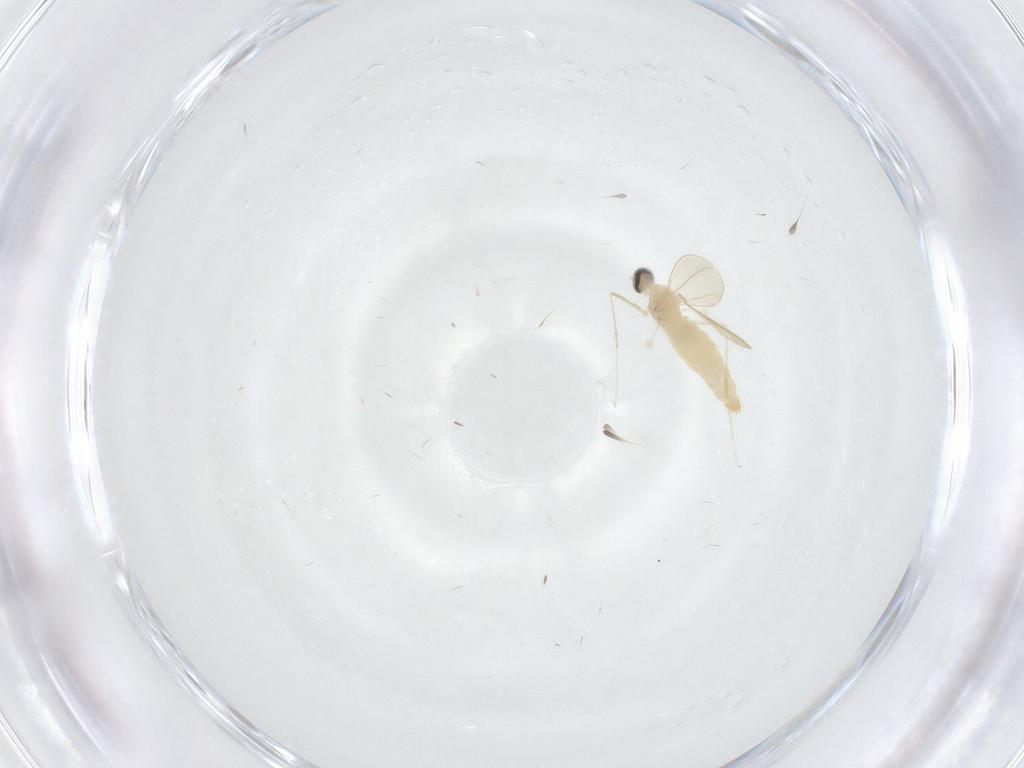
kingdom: Animalia
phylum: Arthropoda
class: Insecta
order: Diptera
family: Cecidomyiidae
